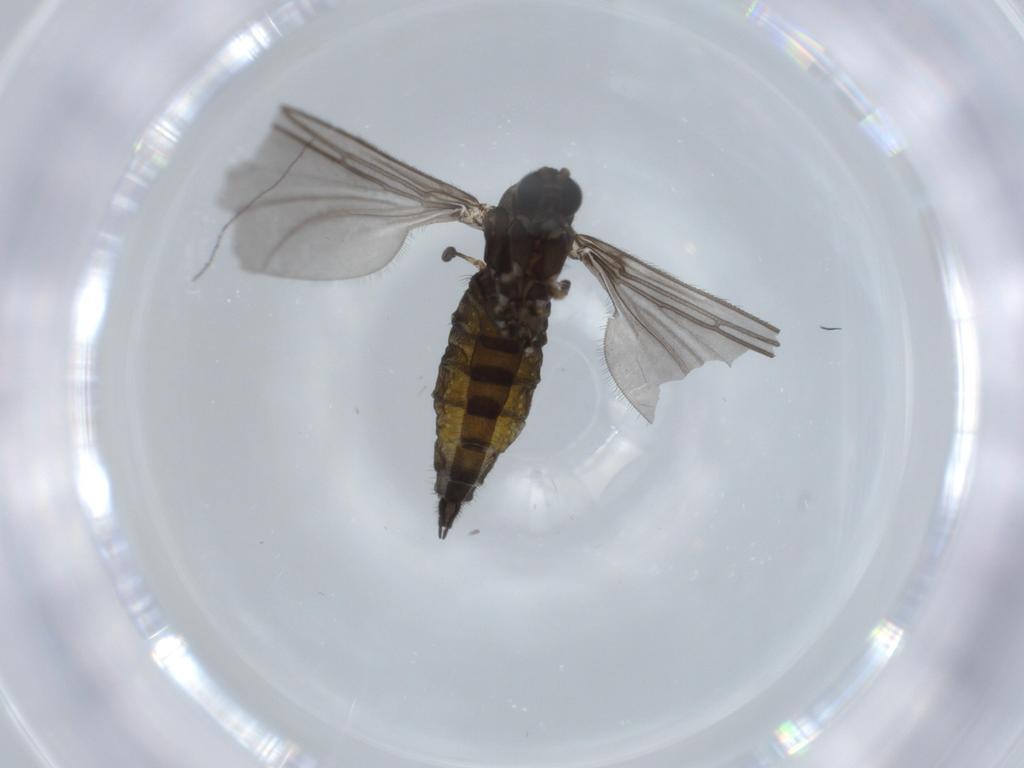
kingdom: Animalia
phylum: Arthropoda
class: Insecta
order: Diptera
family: Sciaridae
